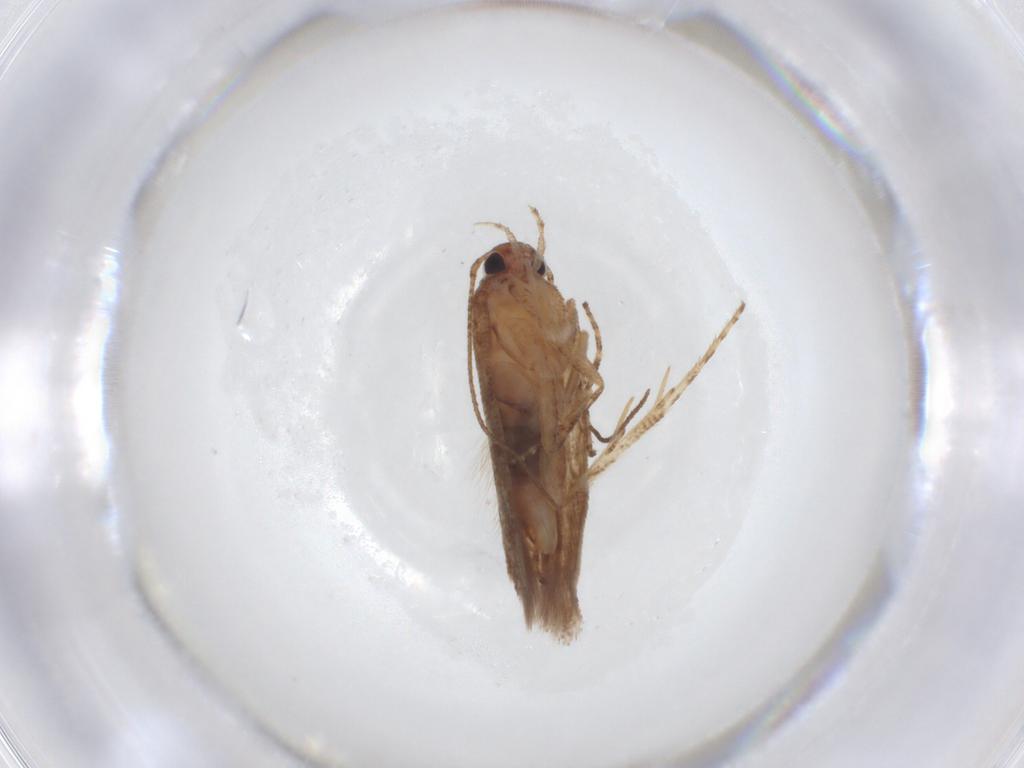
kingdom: Animalia
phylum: Arthropoda
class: Insecta
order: Lepidoptera
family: Gelechiidae
